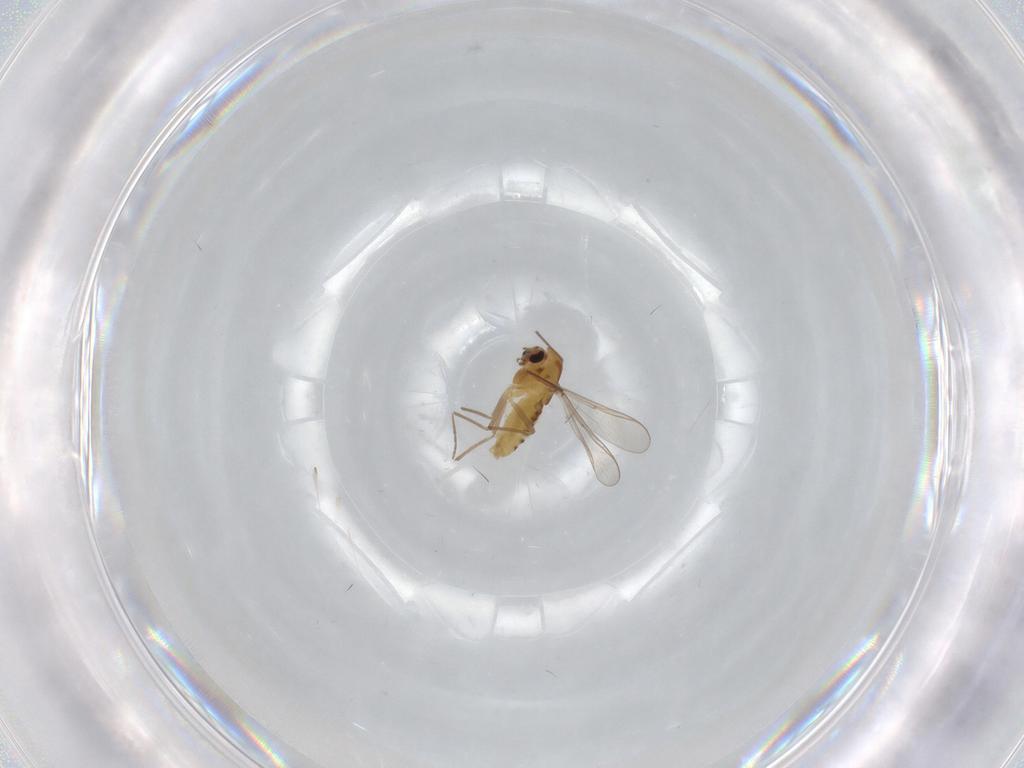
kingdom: Animalia
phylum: Arthropoda
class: Insecta
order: Diptera
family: Chironomidae
